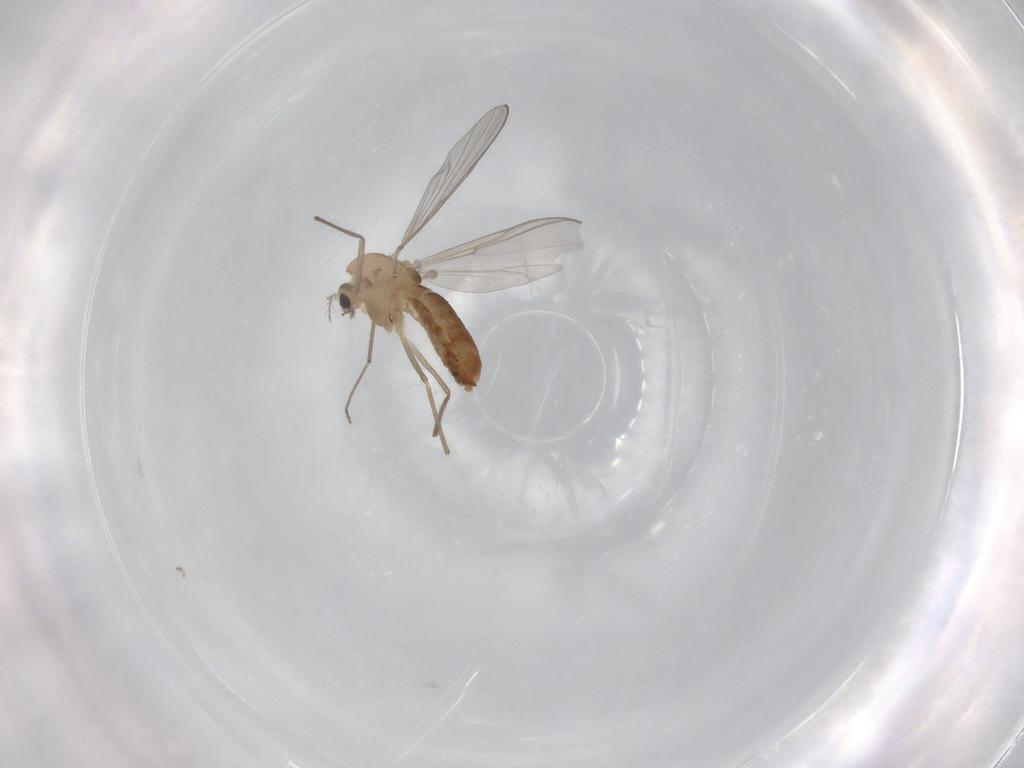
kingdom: Animalia
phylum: Arthropoda
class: Insecta
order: Diptera
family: Chironomidae
